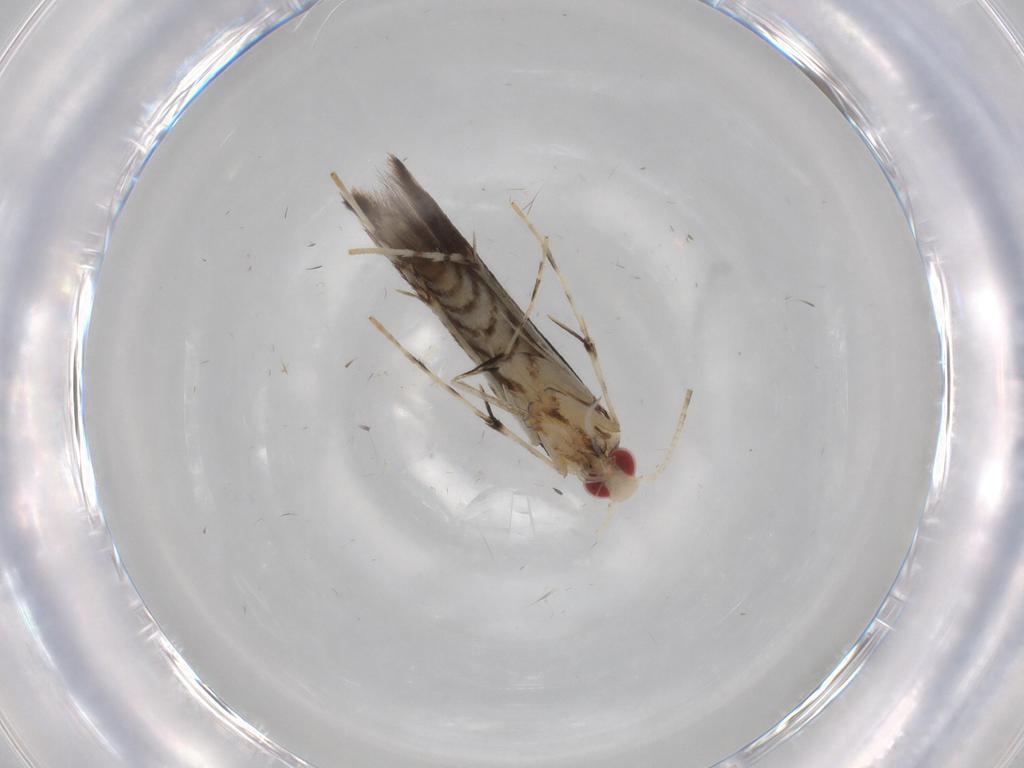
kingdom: Animalia
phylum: Arthropoda
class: Insecta
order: Lepidoptera
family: Gracillariidae
